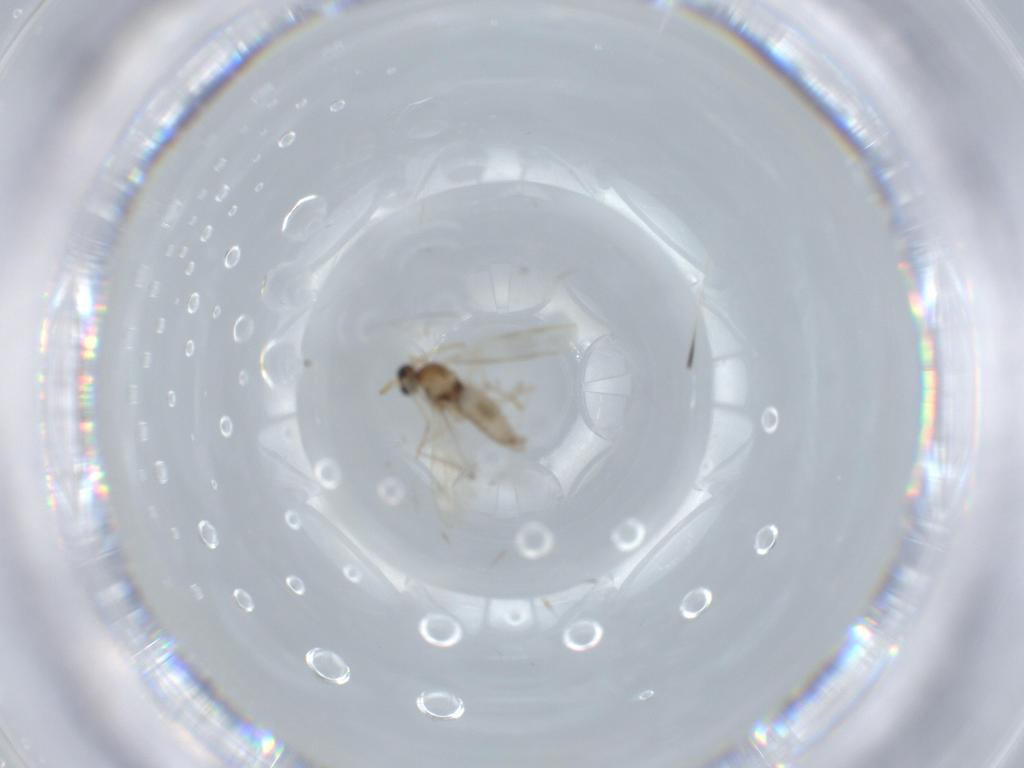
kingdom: Animalia
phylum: Arthropoda
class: Insecta
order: Diptera
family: Cecidomyiidae
